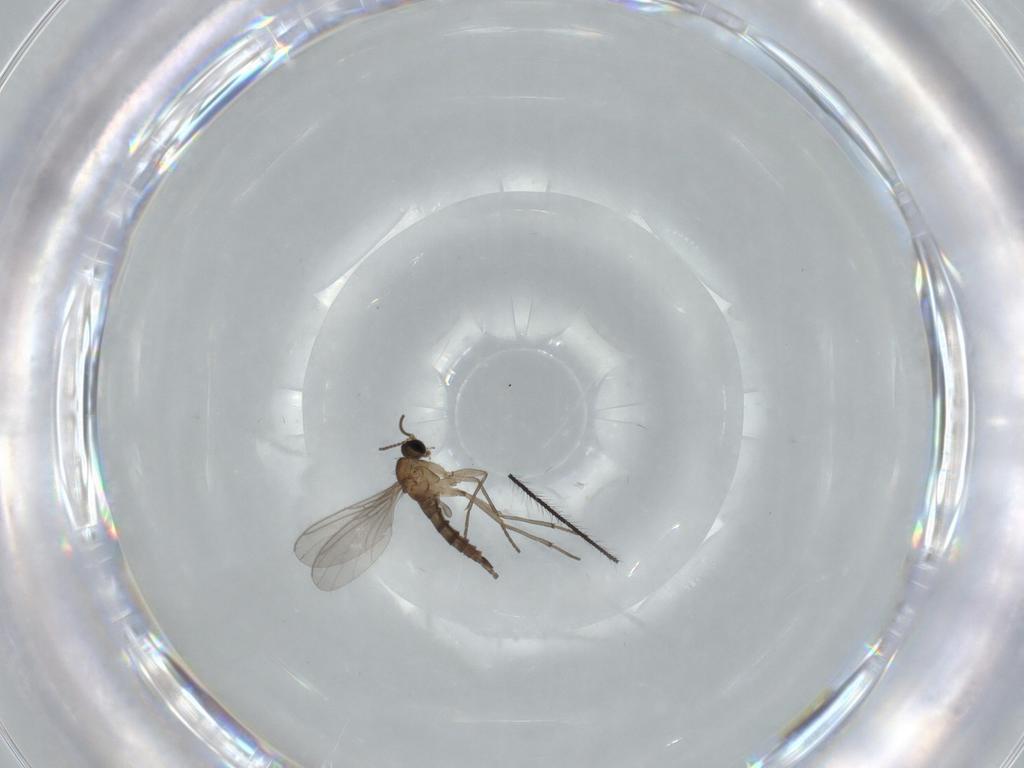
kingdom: Animalia
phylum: Arthropoda
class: Insecta
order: Diptera
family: Sciaridae
